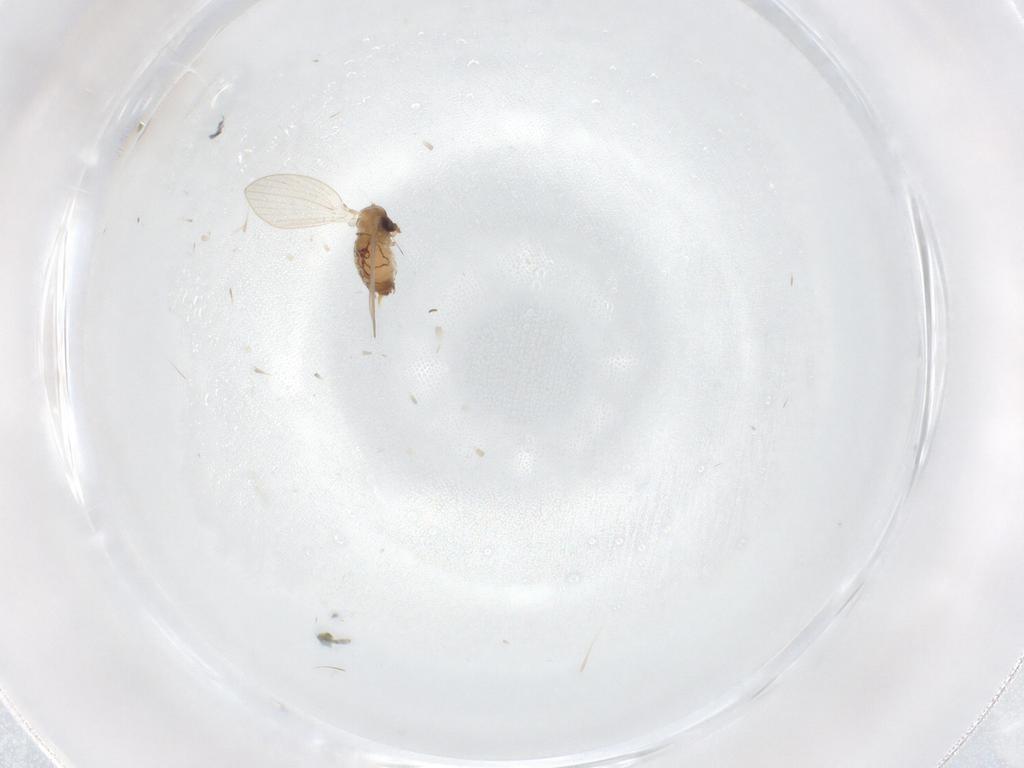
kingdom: Animalia
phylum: Arthropoda
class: Insecta
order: Diptera
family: Psychodidae
